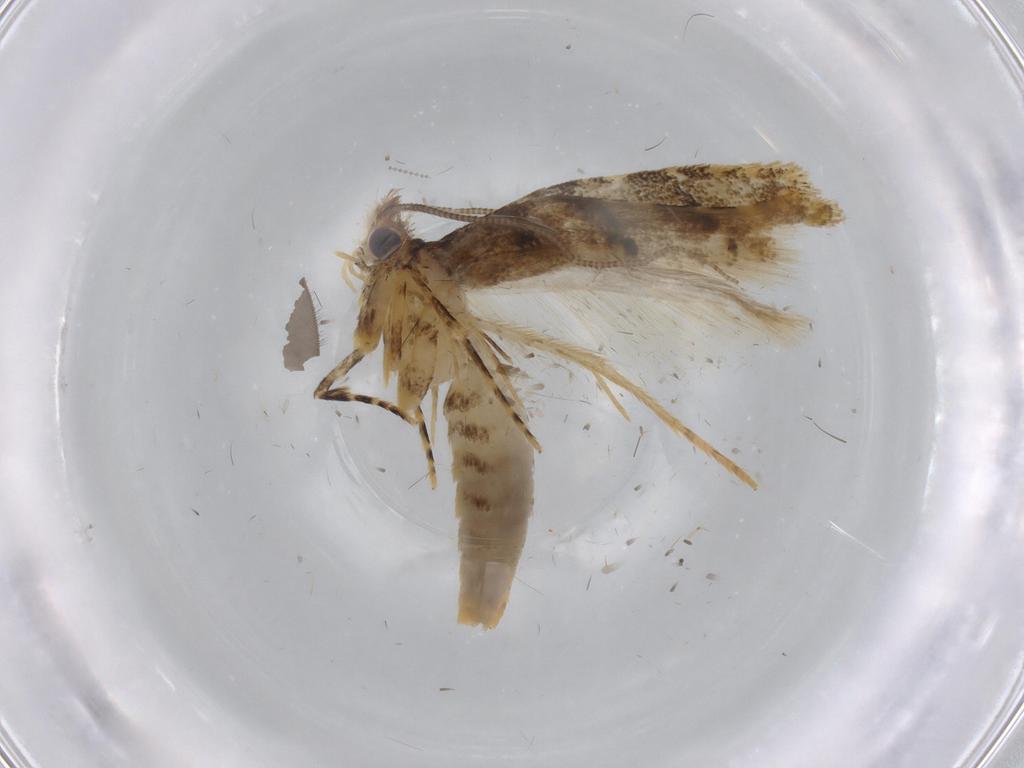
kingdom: Animalia
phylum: Arthropoda
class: Insecta
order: Lepidoptera
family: Tineidae
